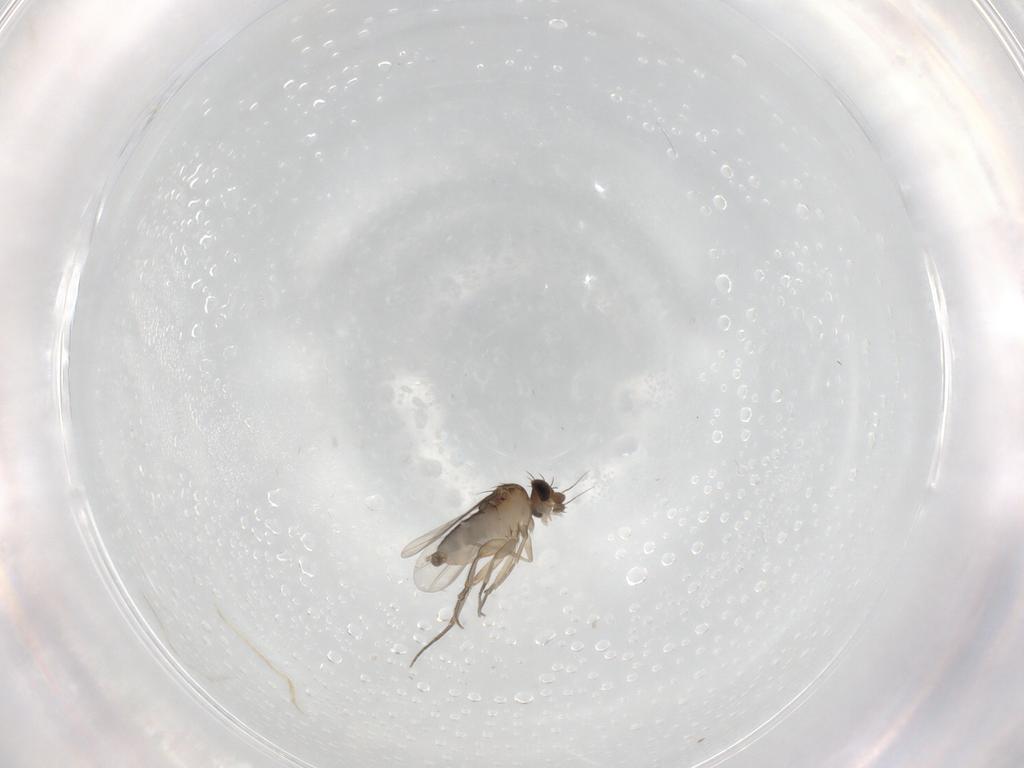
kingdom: Animalia
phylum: Arthropoda
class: Insecta
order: Diptera
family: Phoridae
